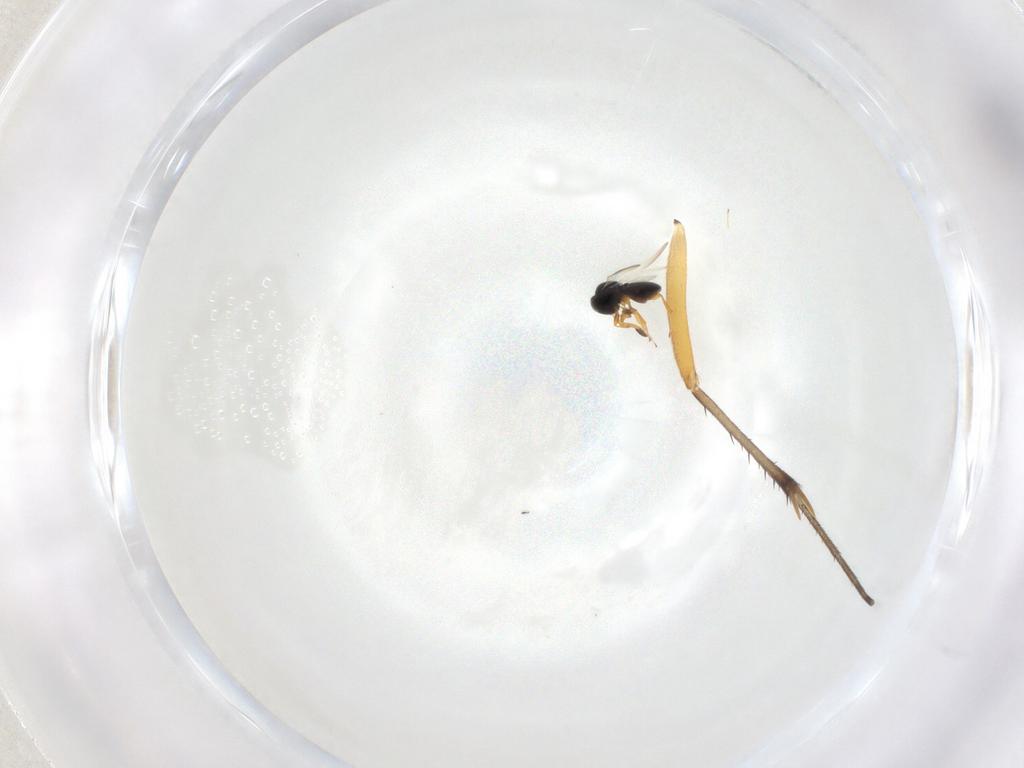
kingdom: Animalia
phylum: Arthropoda
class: Insecta
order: Hymenoptera
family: Platygastridae
